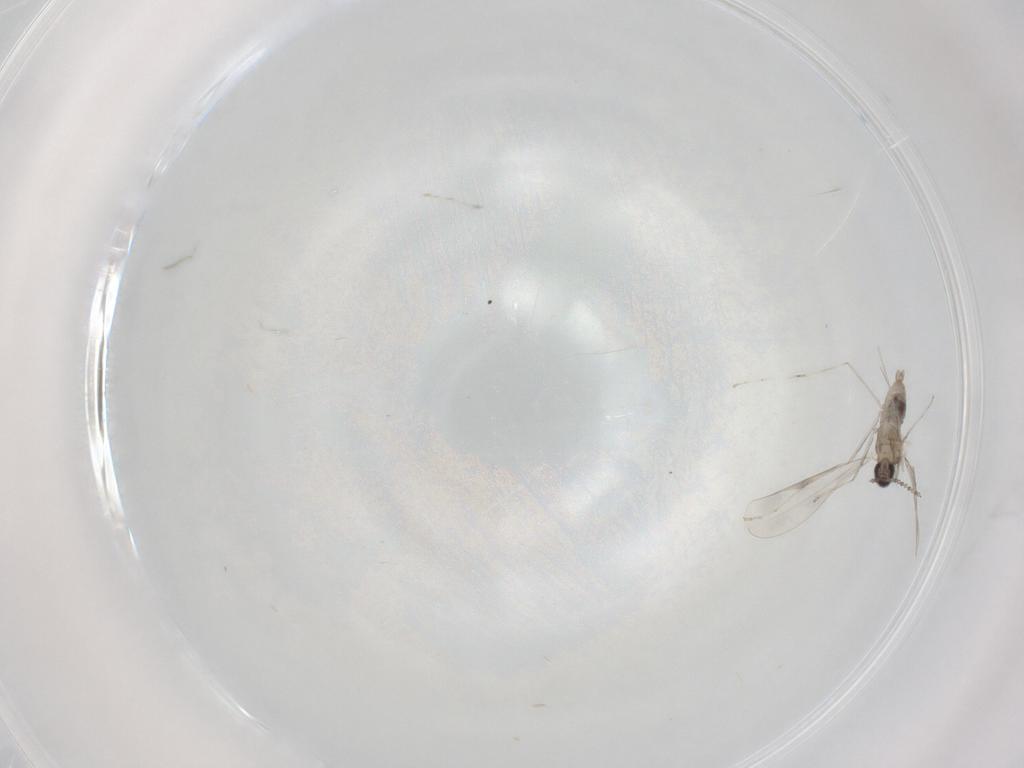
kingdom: Animalia
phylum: Arthropoda
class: Insecta
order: Diptera
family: Cecidomyiidae
